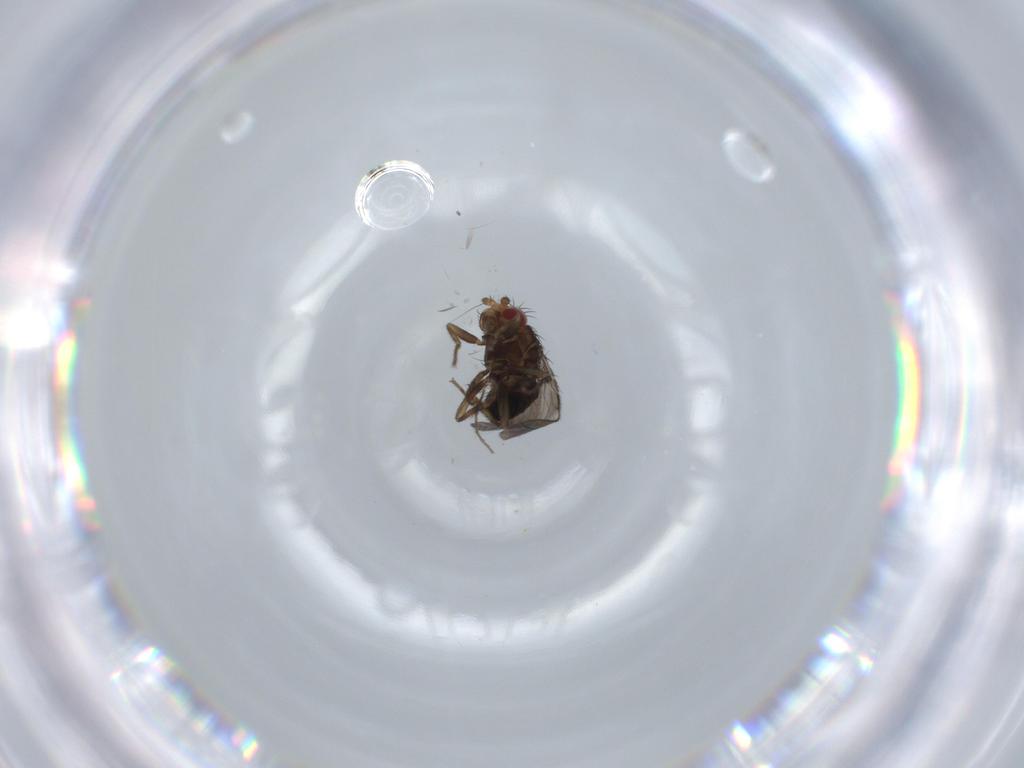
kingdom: Animalia
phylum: Arthropoda
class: Insecta
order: Diptera
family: Sphaeroceridae
